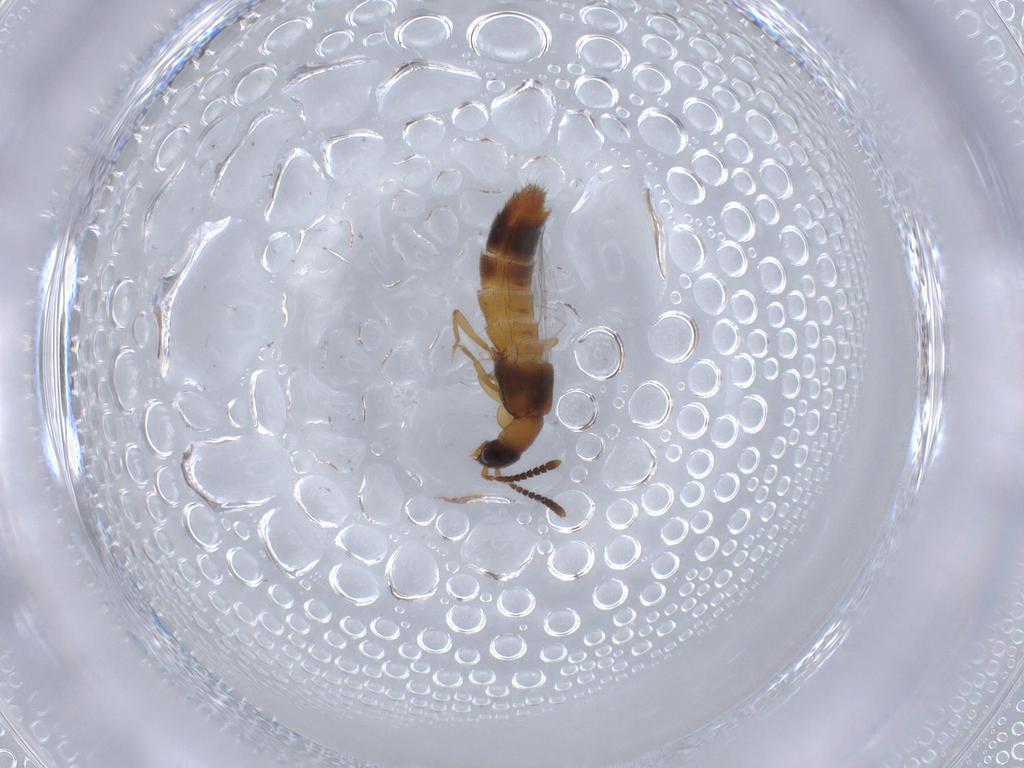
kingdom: Animalia
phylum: Arthropoda
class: Insecta
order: Coleoptera
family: Staphylinidae
